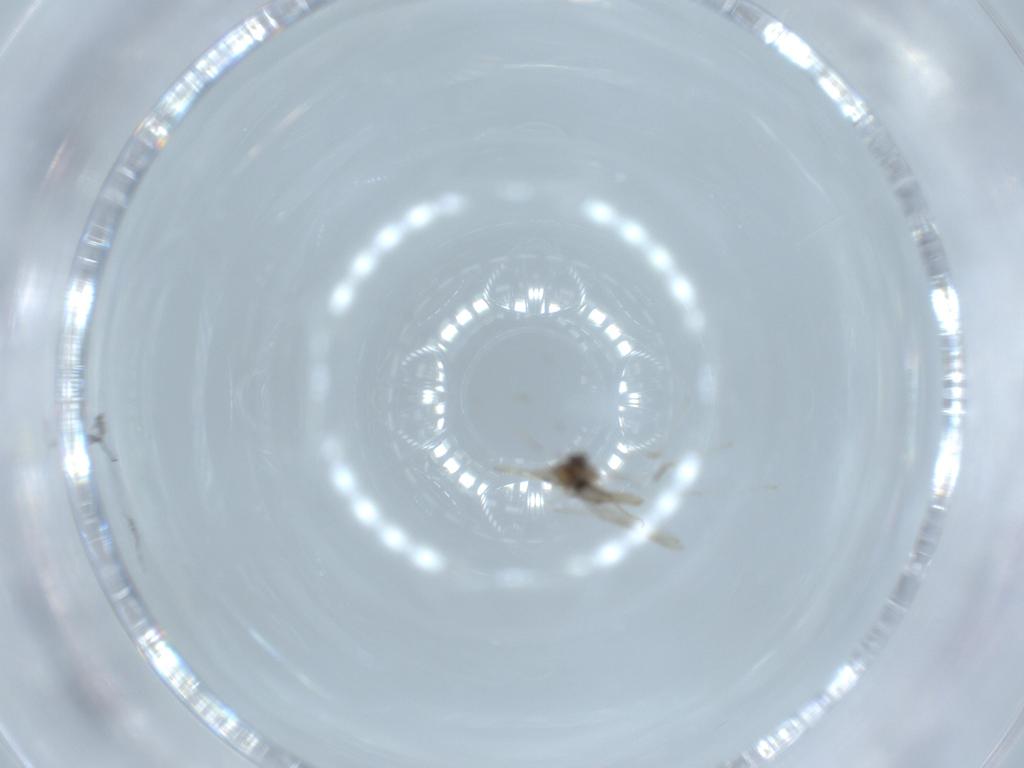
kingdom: Animalia
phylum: Arthropoda
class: Insecta
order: Diptera
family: Cecidomyiidae
